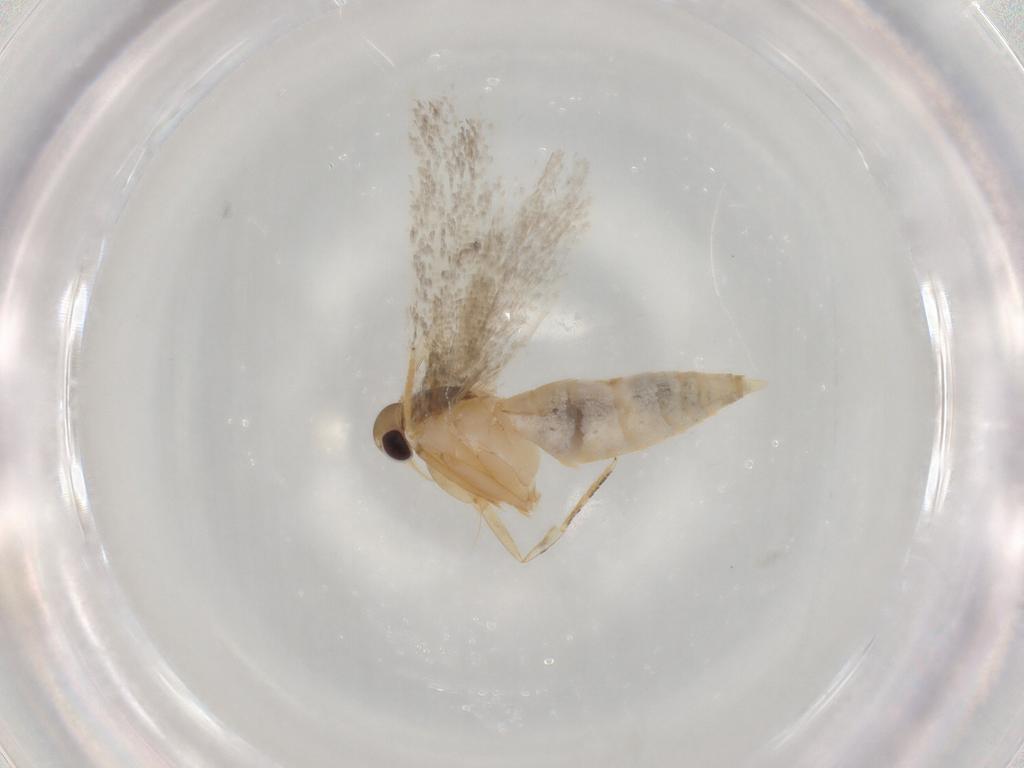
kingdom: Animalia
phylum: Arthropoda
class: Insecta
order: Lepidoptera
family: Autostichidae
